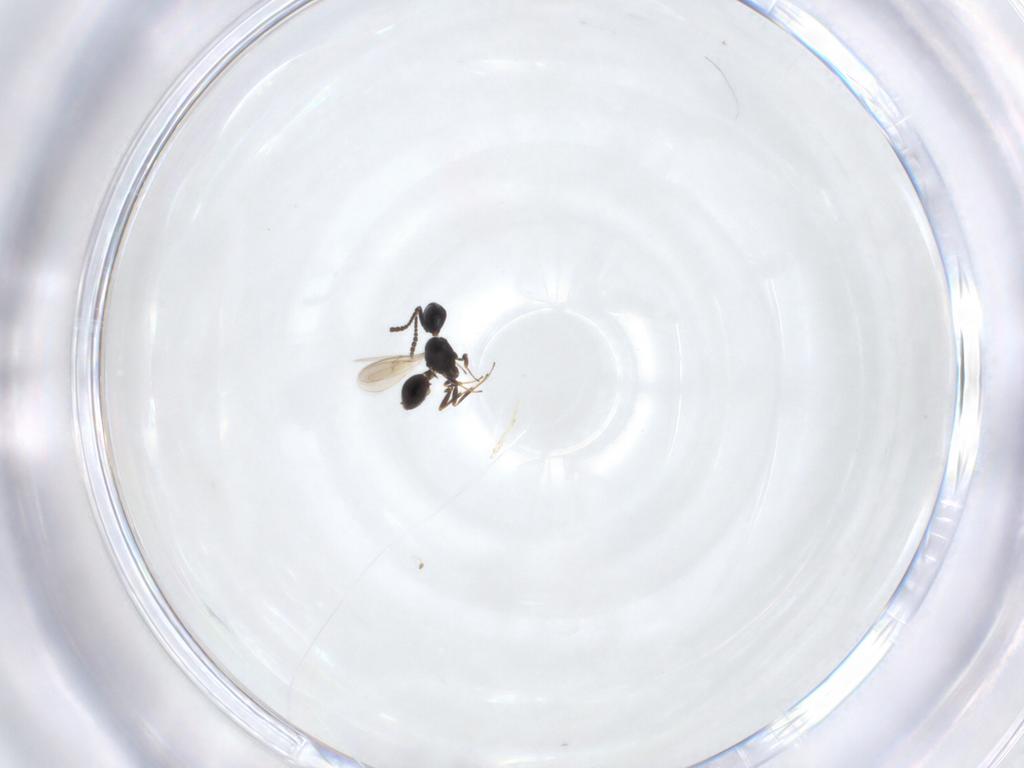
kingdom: Animalia
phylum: Arthropoda
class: Insecta
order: Hymenoptera
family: Scelionidae
